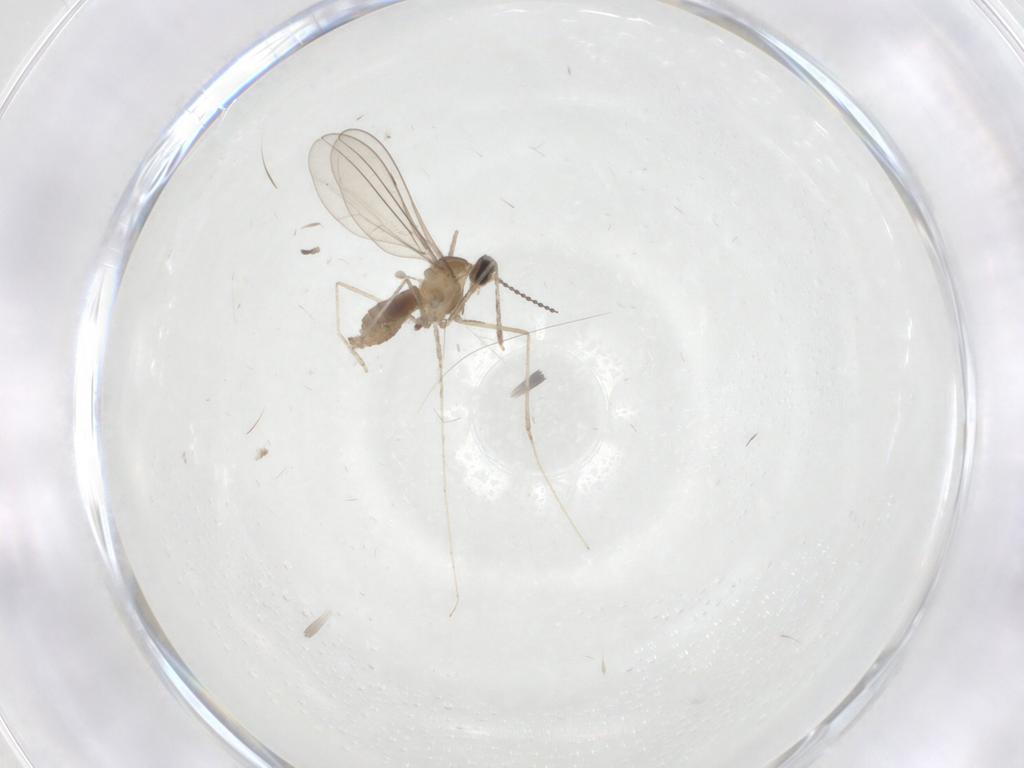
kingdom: Animalia
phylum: Arthropoda
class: Insecta
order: Diptera
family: Cecidomyiidae
